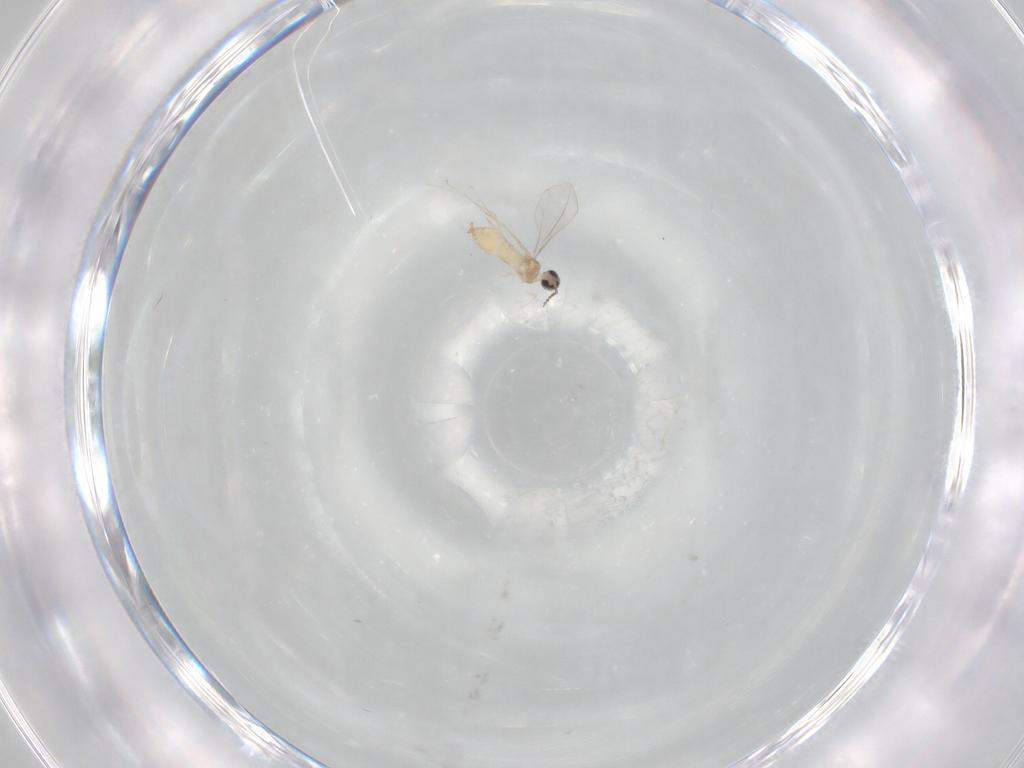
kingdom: Animalia
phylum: Arthropoda
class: Insecta
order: Diptera
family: Cecidomyiidae
